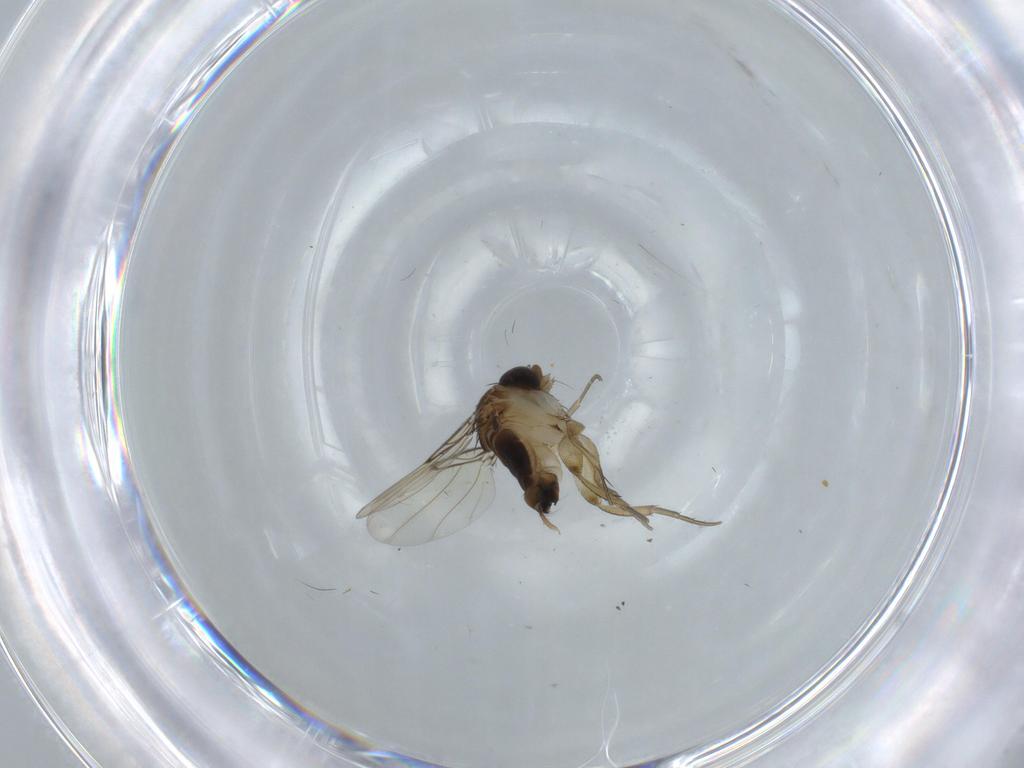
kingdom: Animalia
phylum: Arthropoda
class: Insecta
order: Diptera
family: Phoridae
